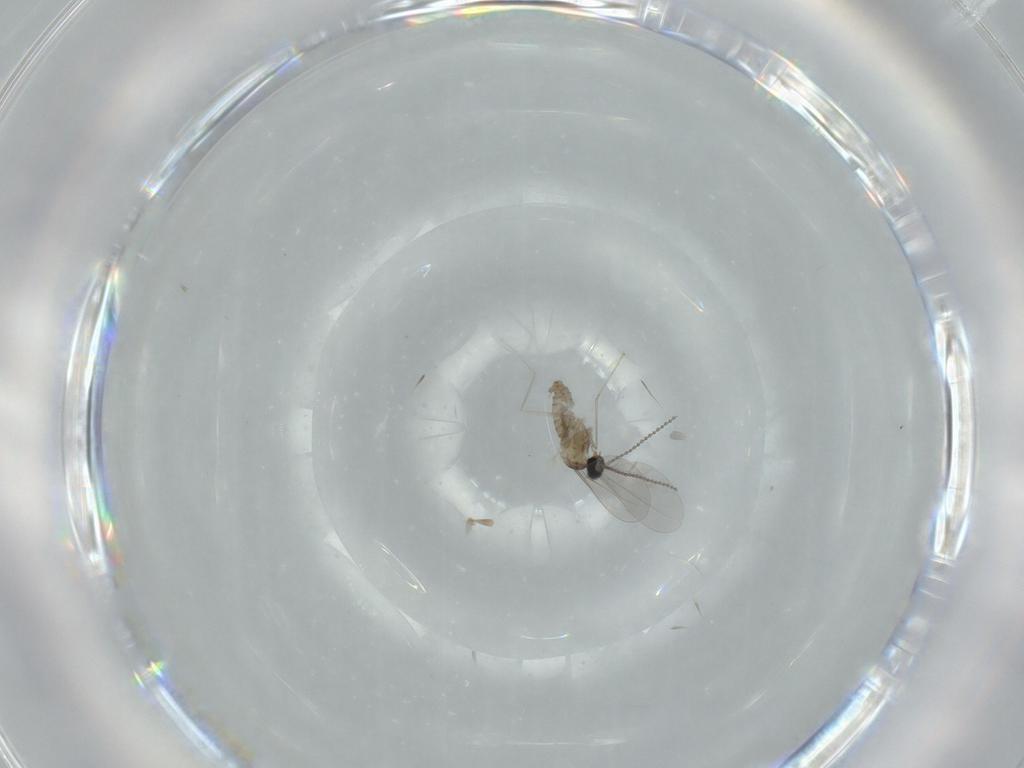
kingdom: Animalia
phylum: Arthropoda
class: Insecta
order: Diptera
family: Cecidomyiidae
